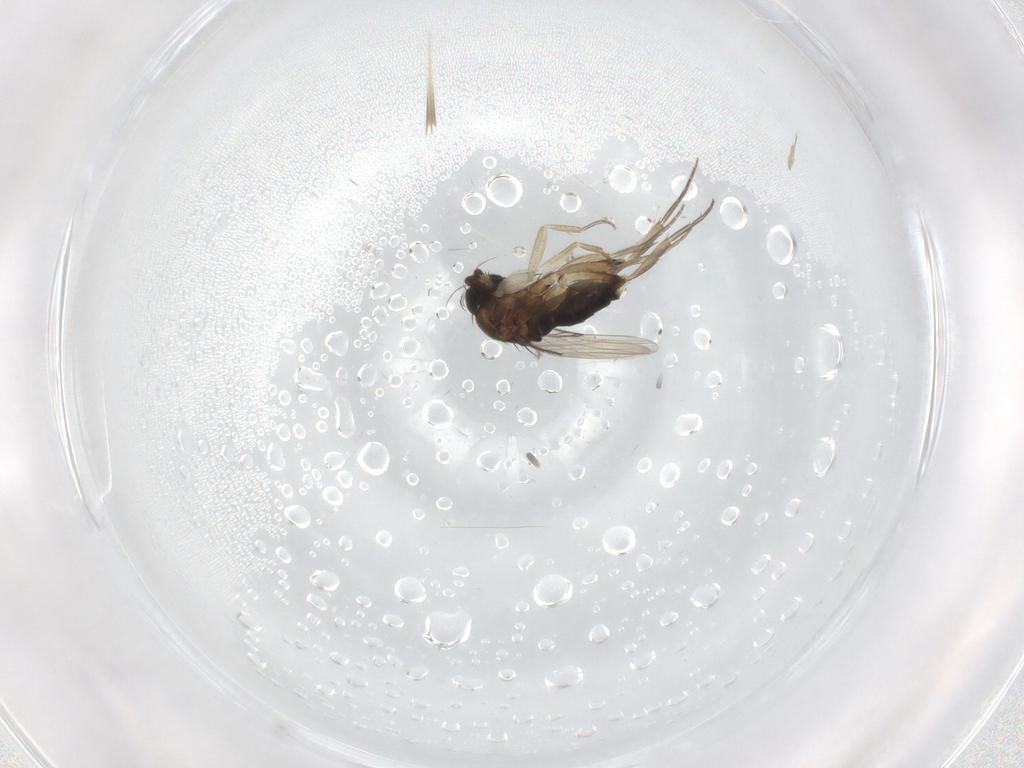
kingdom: Animalia
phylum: Arthropoda
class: Insecta
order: Diptera
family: Phoridae
